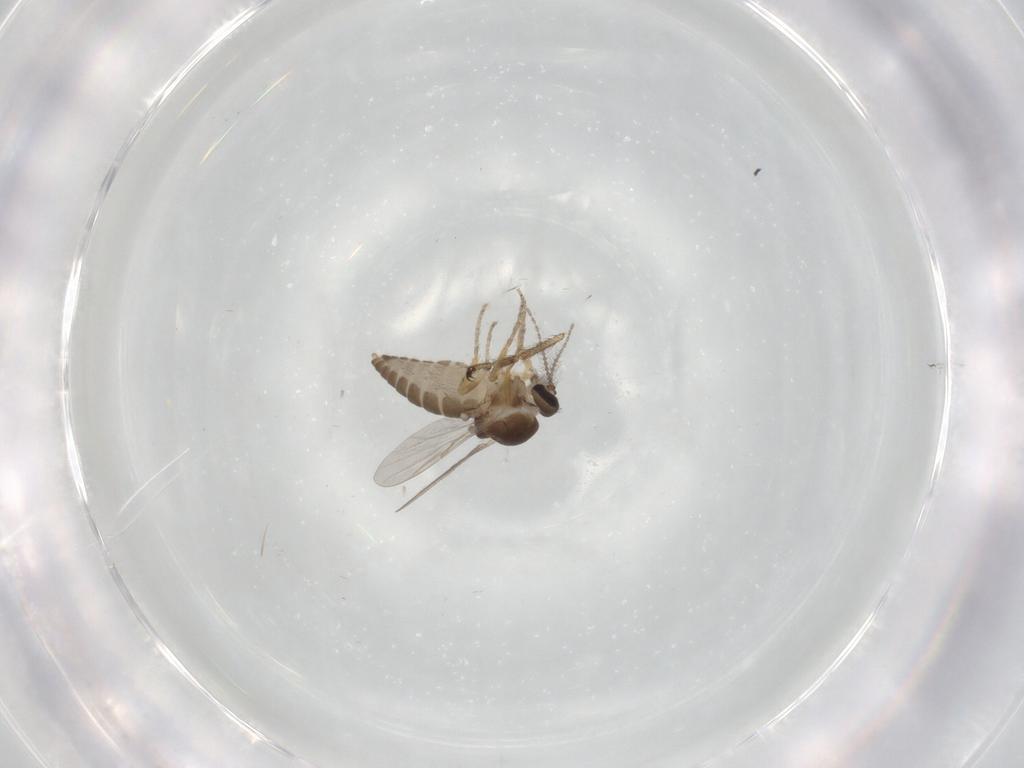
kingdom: Animalia
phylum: Arthropoda
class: Insecta
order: Diptera
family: Ceratopogonidae
